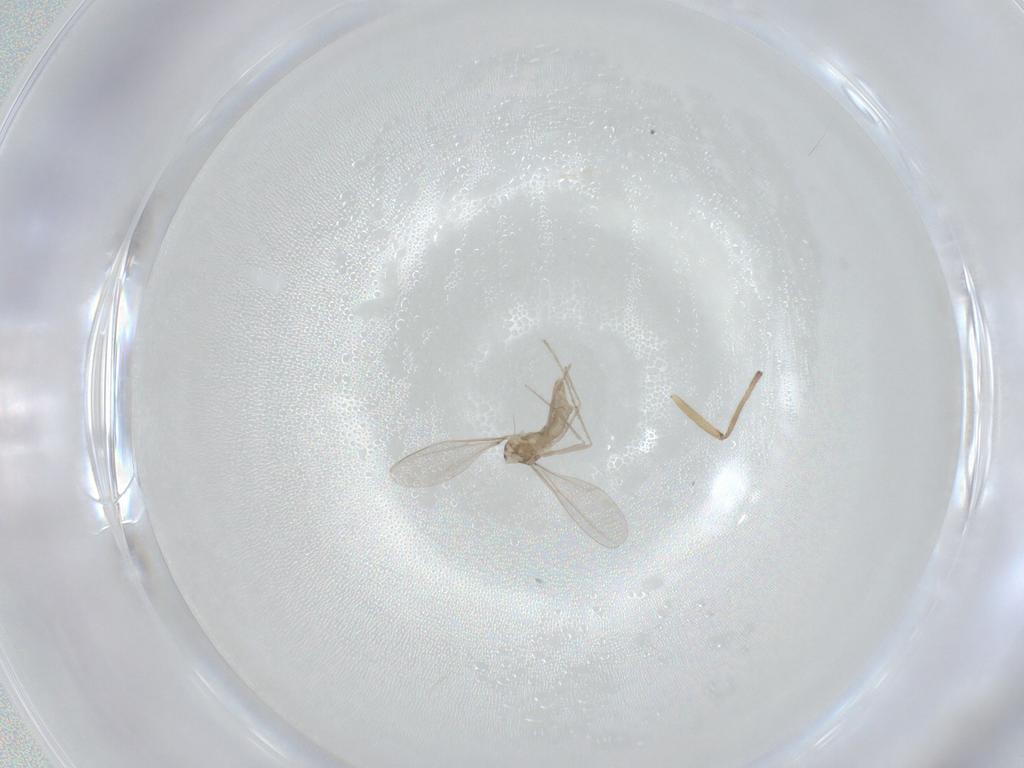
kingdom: Animalia
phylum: Arthropoda
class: Insecta
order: Diptera
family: Cecidomyiidae
